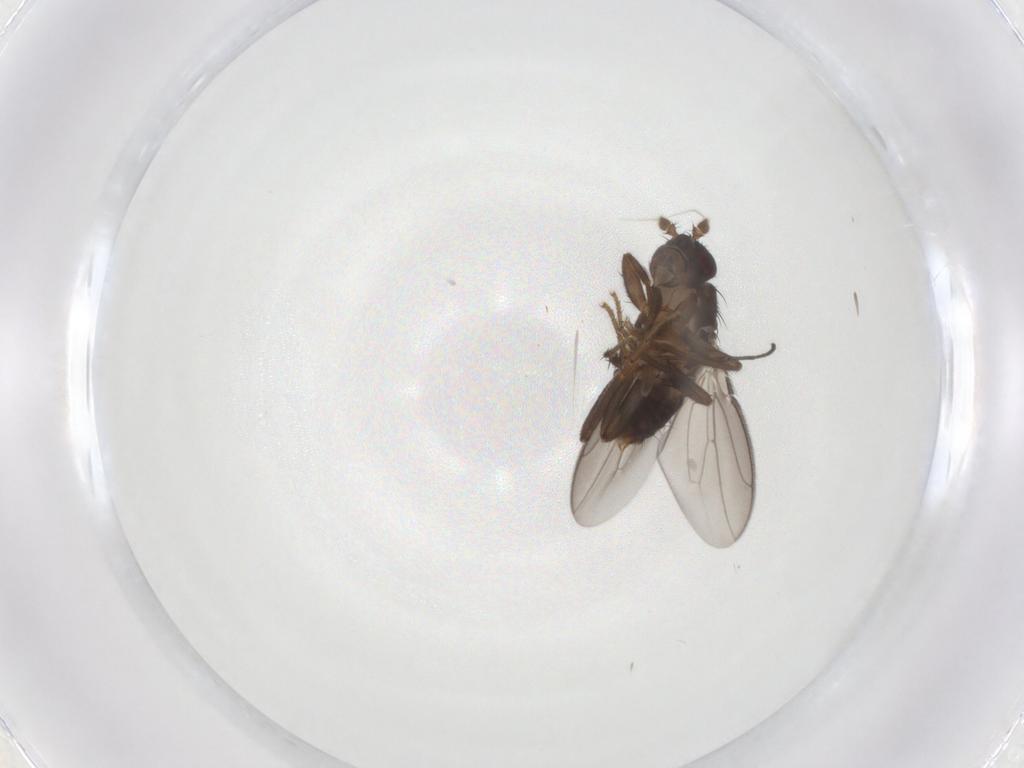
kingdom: Animalia
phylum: Arthropoda
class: Insecta
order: Diptera
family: Sphaeroceridae
